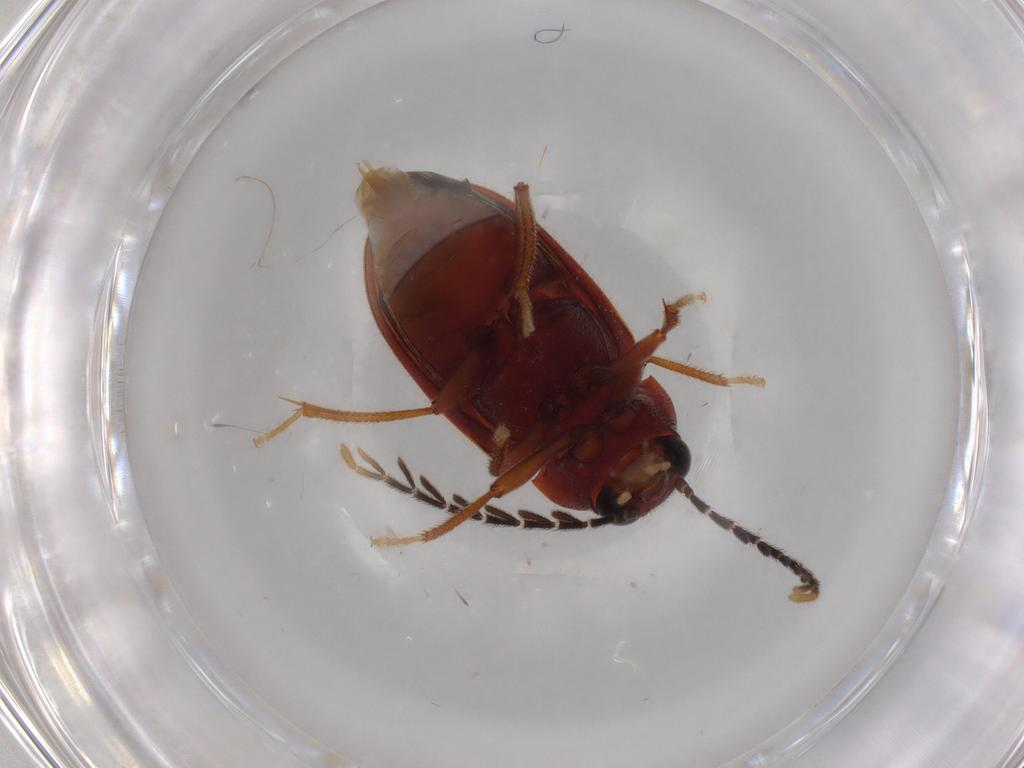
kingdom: Animalia
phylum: Arthropoda
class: Insecta
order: Coleoptera
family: Ptilodactylidae
